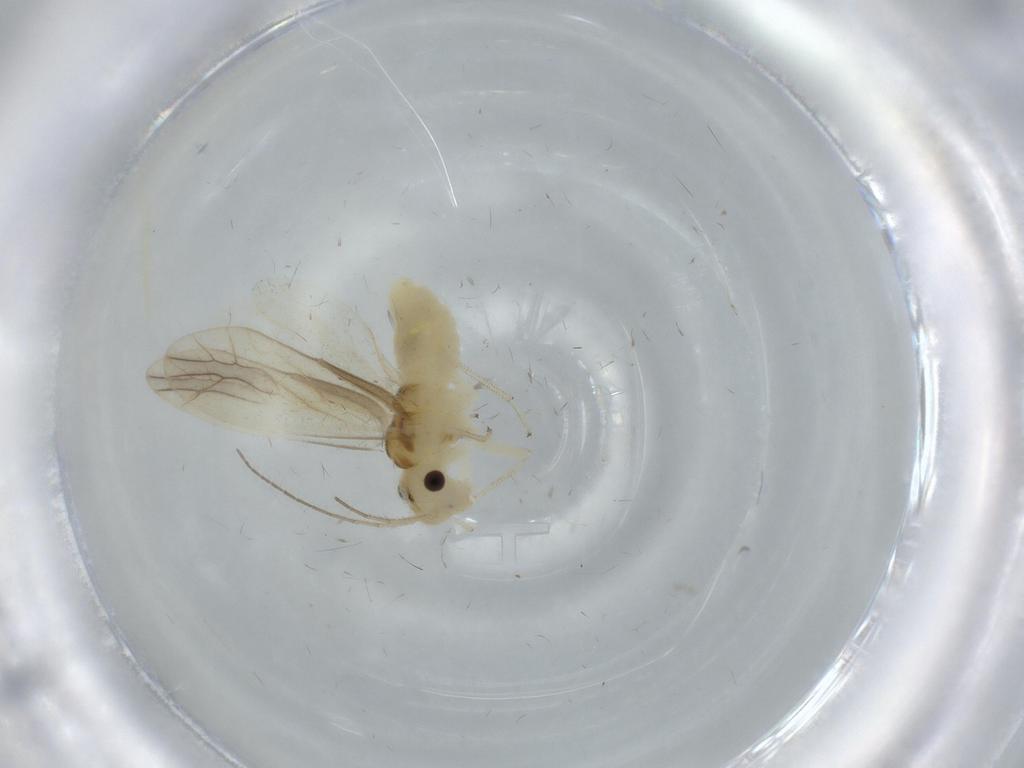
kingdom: Animalia
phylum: Arthropoda
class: Insecta
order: Psocodea
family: Caeciliusidae
